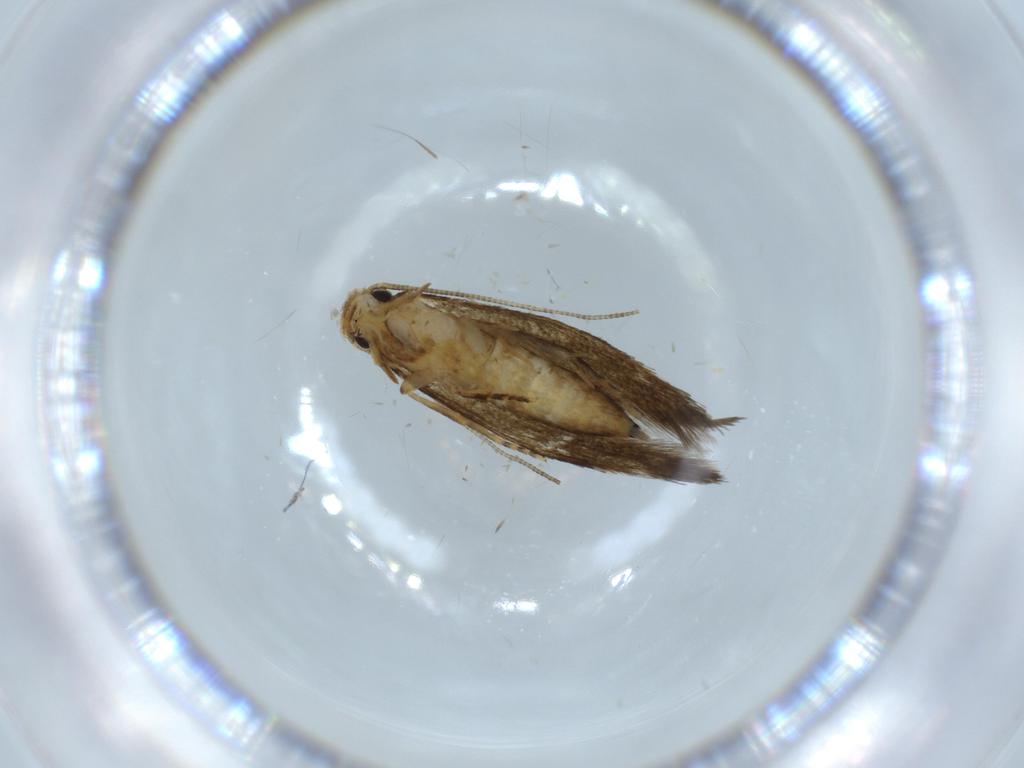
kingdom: Animalia
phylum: Arthropoda
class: Insecta
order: Lepidoptera
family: Tineidae
